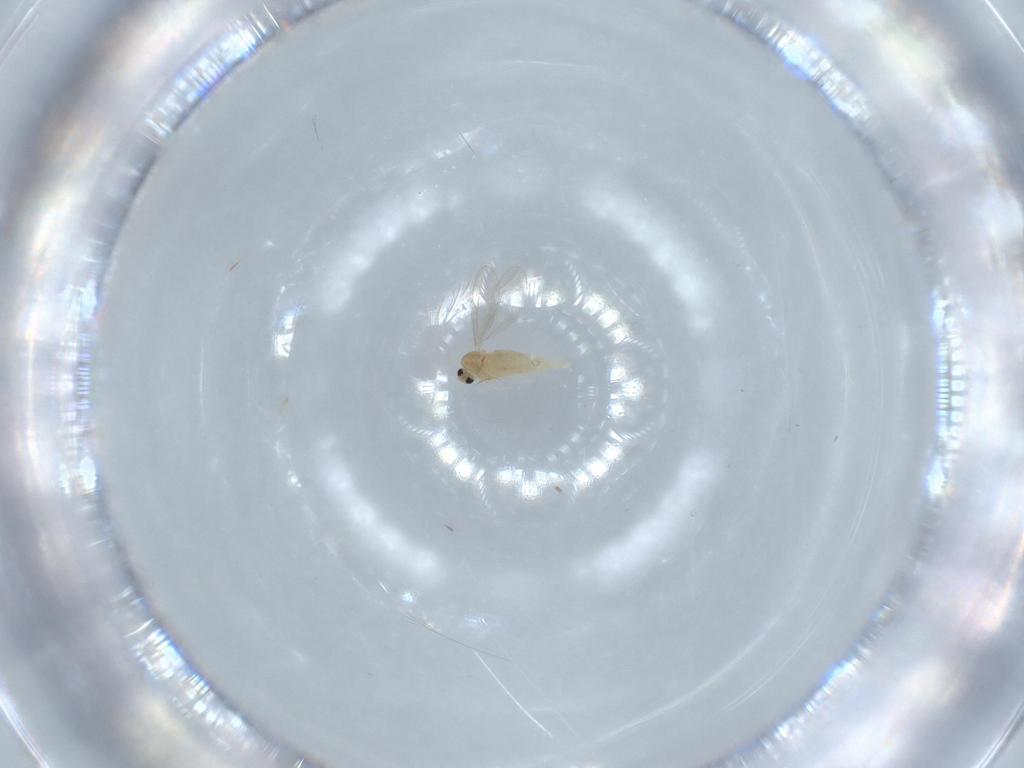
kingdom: Animalia
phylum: Arthropoda
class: Insecta
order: Diptera
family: Cecidomyiidae
